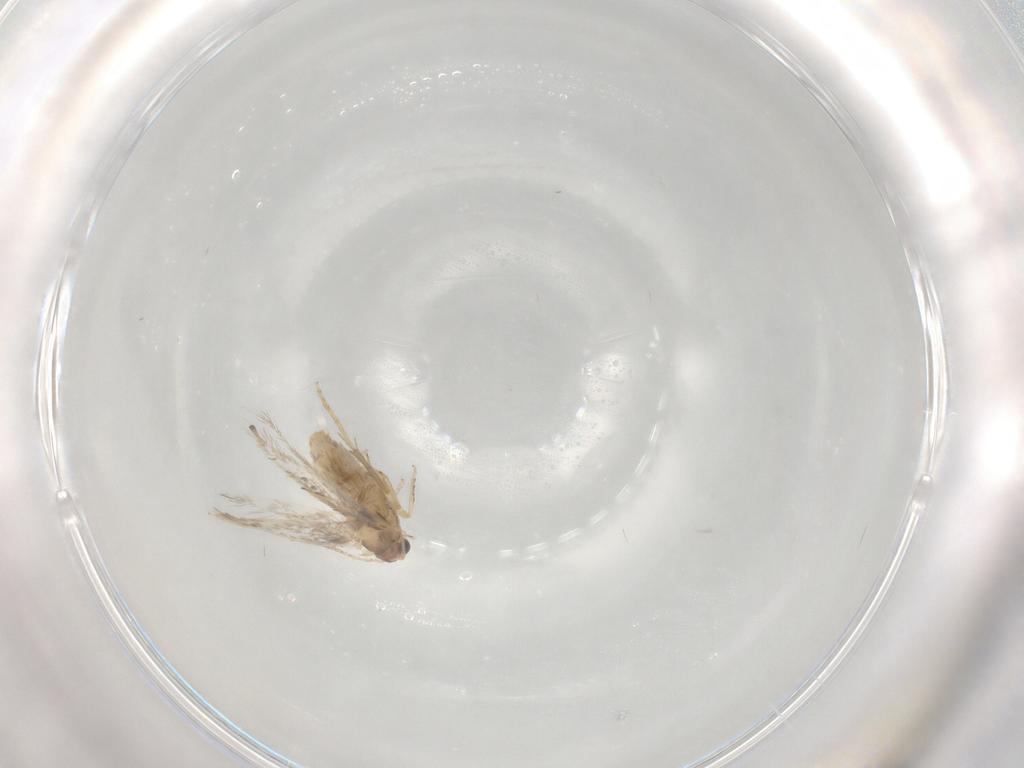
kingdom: Animalia
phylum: Arthropoda
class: Insecta
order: Lepidoptera
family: Nepticulidae
